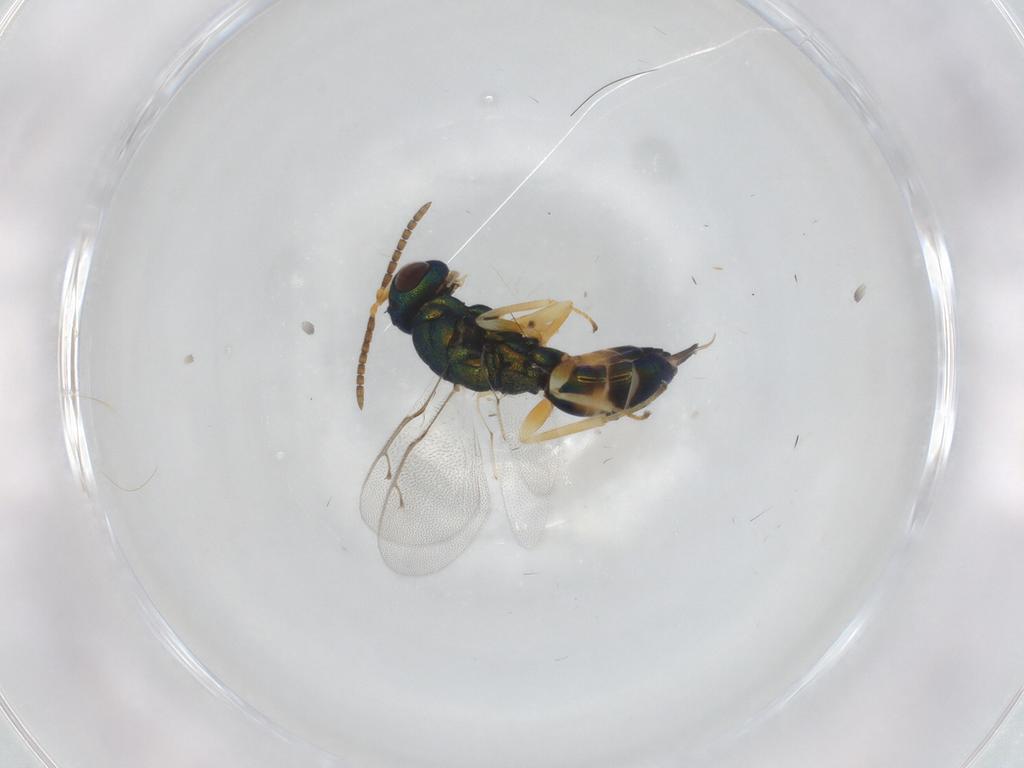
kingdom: Animalia
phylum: Arthropoda
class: Insecta
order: Hymenoptera
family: Pteromalidae
